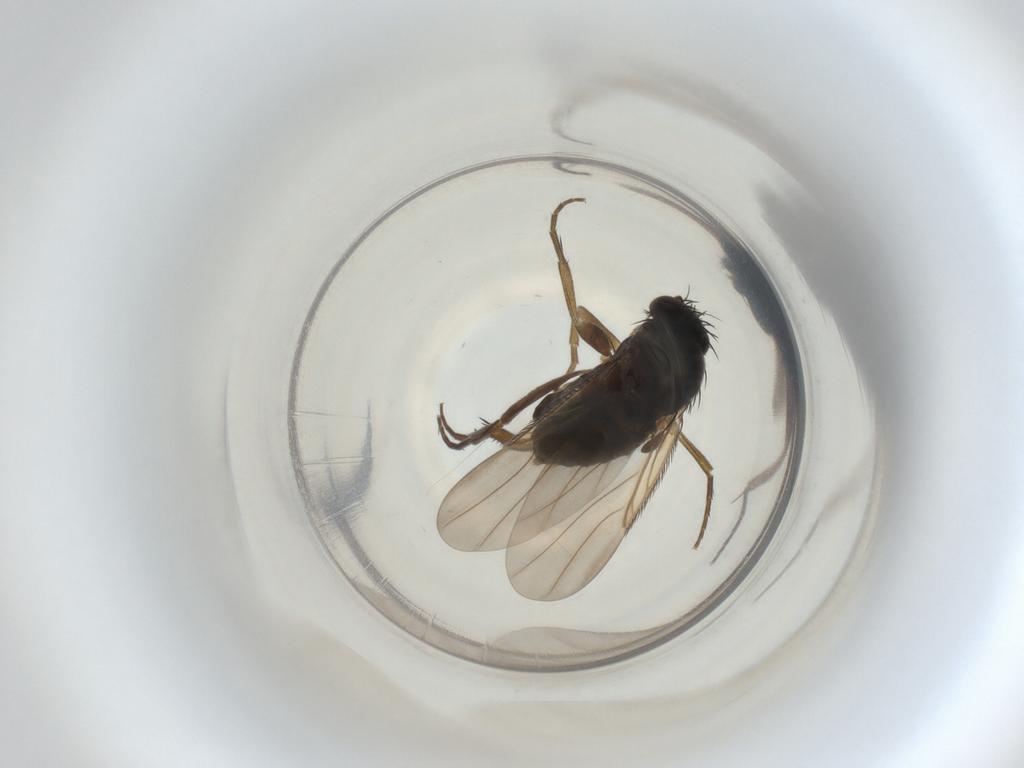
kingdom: Animalia
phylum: Arthropoda
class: Insecta
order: Diptera
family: Phoridae
